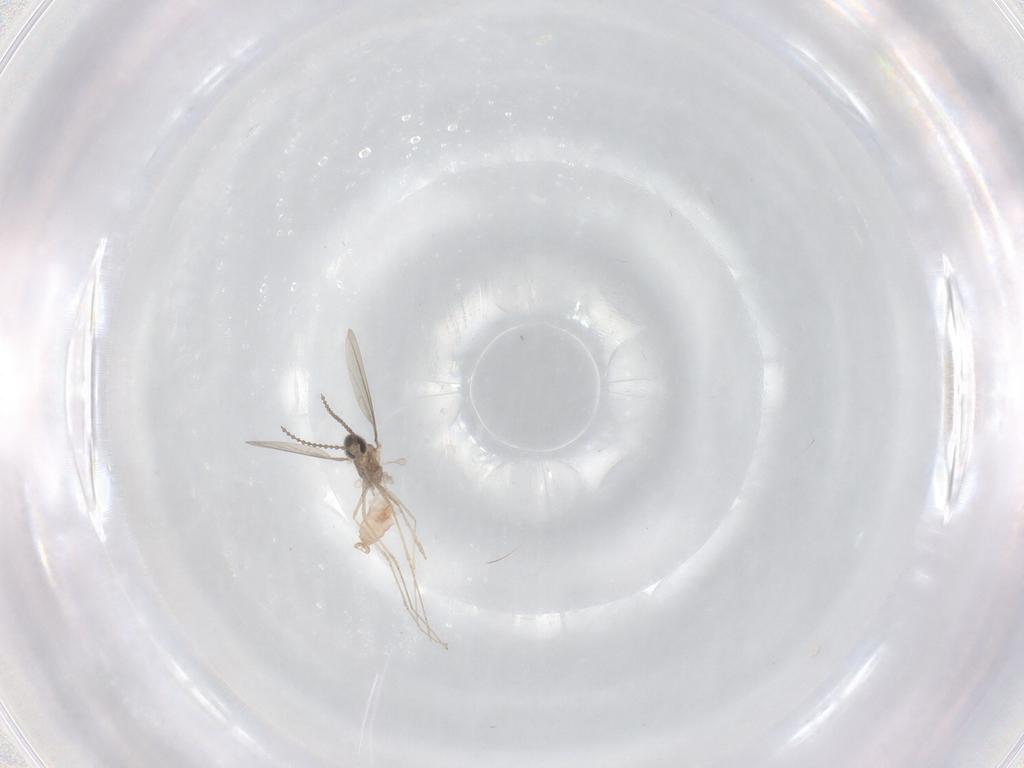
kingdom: Animalia
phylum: Arthropoda
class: Insecta
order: Diptera
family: Cecidomyiidae
